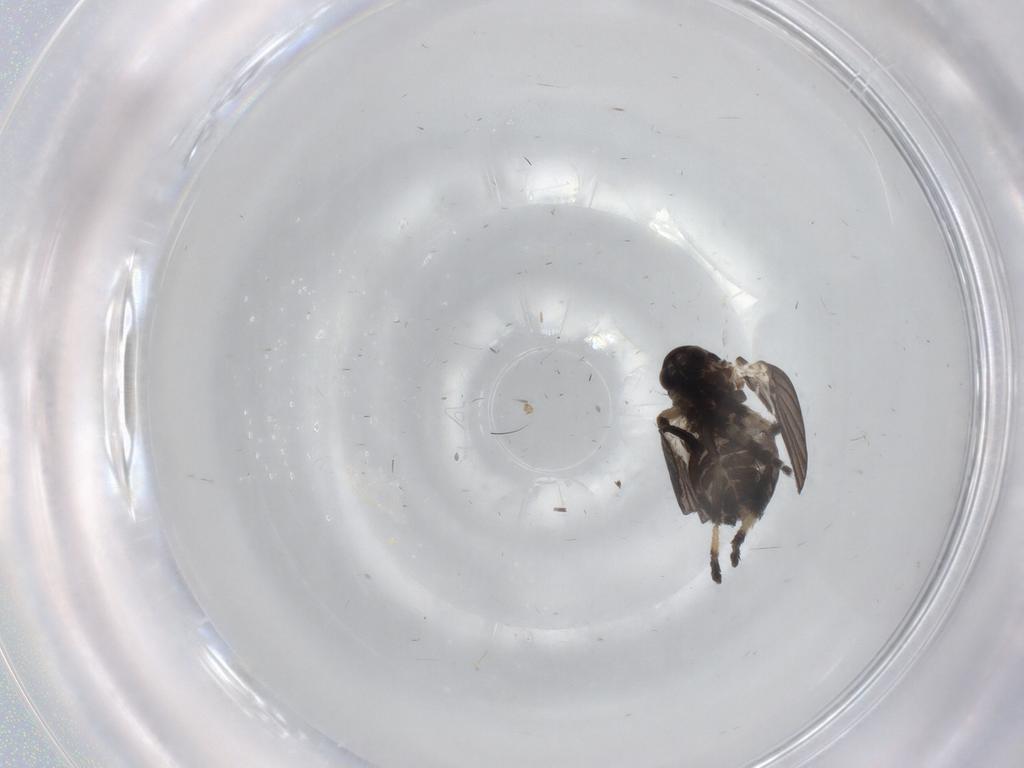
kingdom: Animalia
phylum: Arthropoda
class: Insecta
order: Diptera
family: Psychodidae
